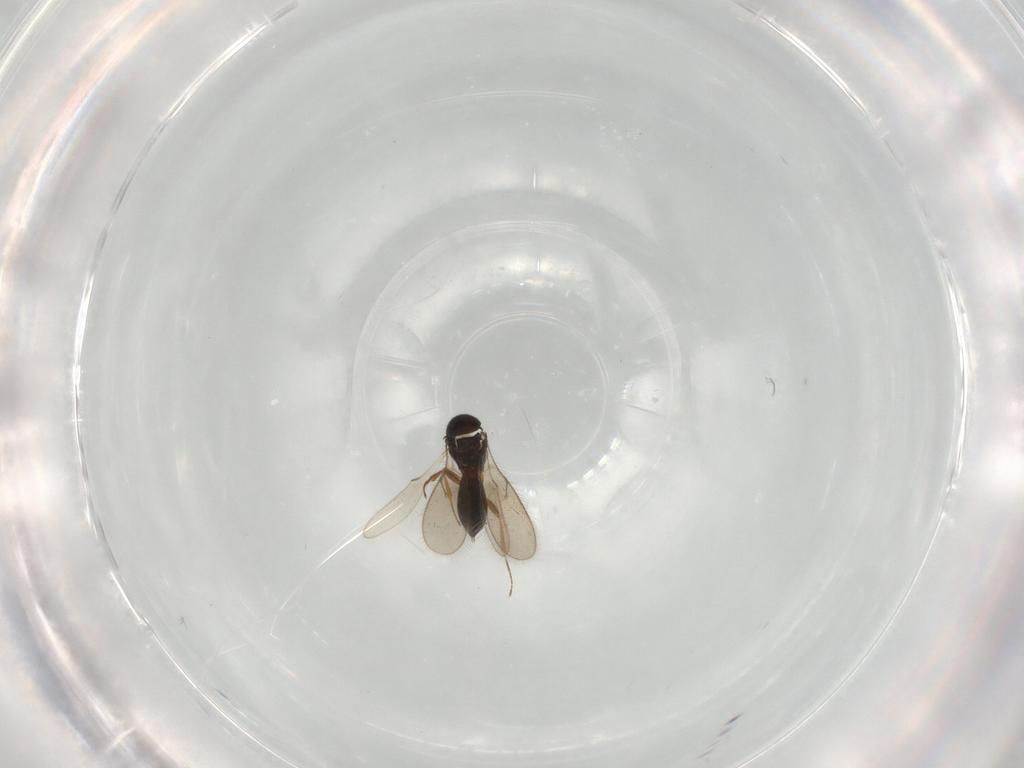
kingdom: Animalia
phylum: Arthropoda
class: Insecta
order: Hymenoptera
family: Scelionidae
